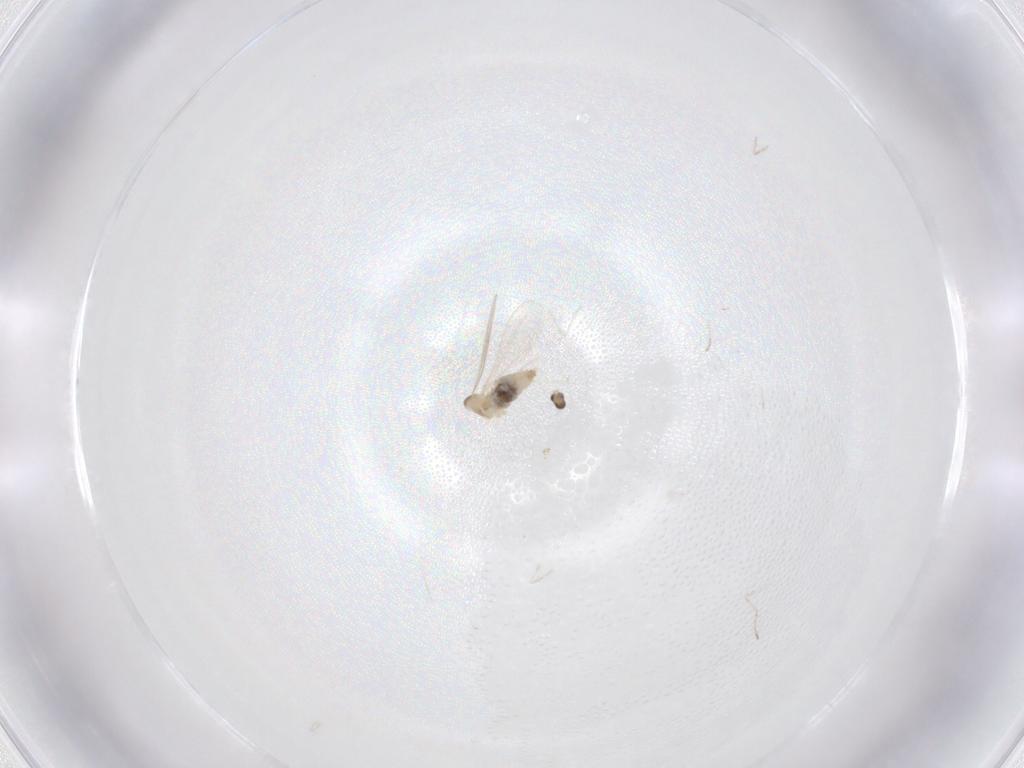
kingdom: Animalia
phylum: Arthropoda
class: Insecta
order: Diptera
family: Cecidomyiidae
